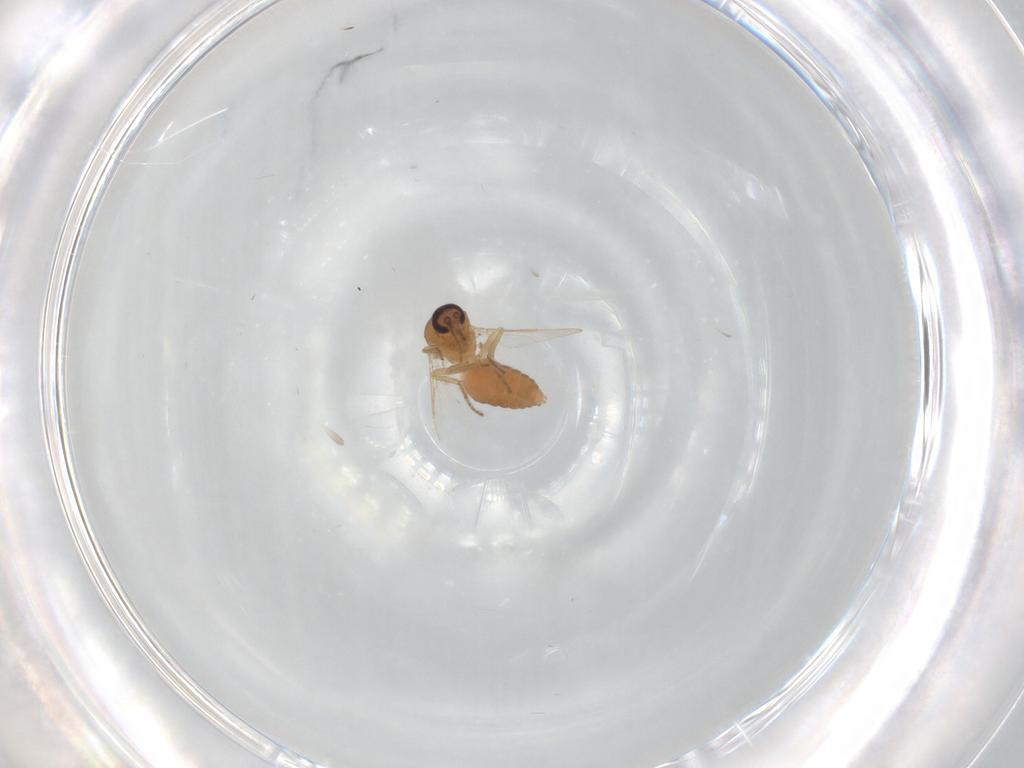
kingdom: Animalia
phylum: Arthropoda
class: Insecta
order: Diptera
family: Ceratopogonidae
